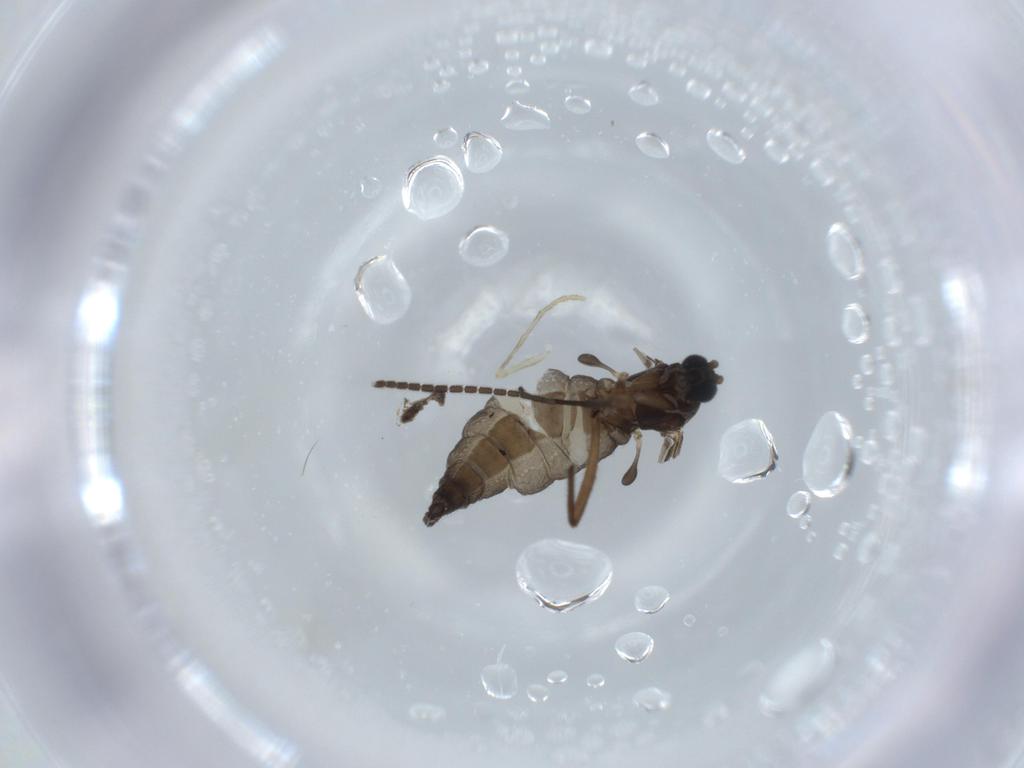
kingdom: Animalia
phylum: Arthropoda
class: Insecta
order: Diptera
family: Sciaridae
